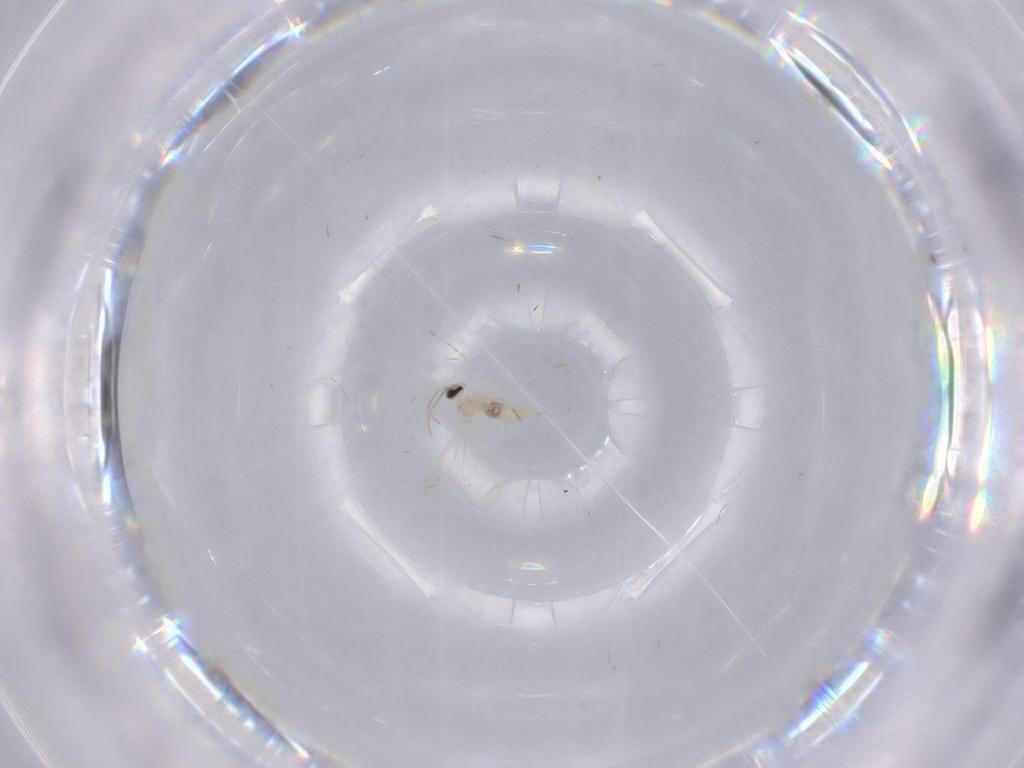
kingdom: Animalia
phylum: Arthropoda
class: Insecta
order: Diptera
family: Cecidomyiidae
